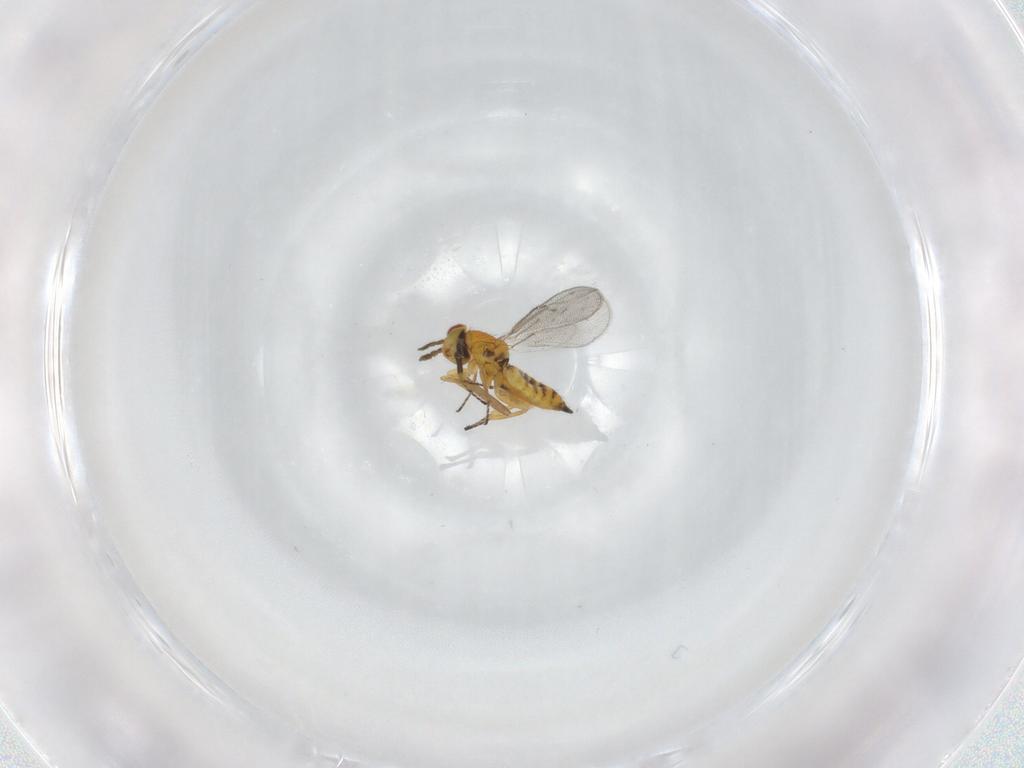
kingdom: Animalia
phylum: Arthropoda
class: Insecta
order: Hymenoptera
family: Eulophidae
